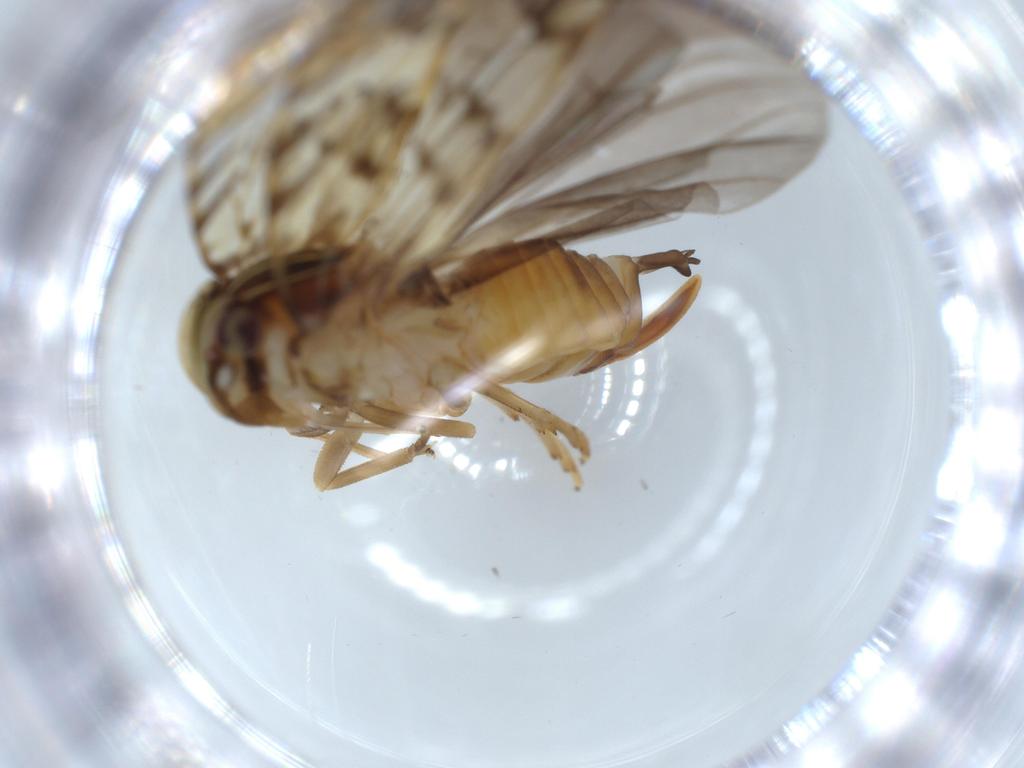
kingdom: Animalia
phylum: Arthropoda
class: Insecta
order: Hemiptera
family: Cixiidae
